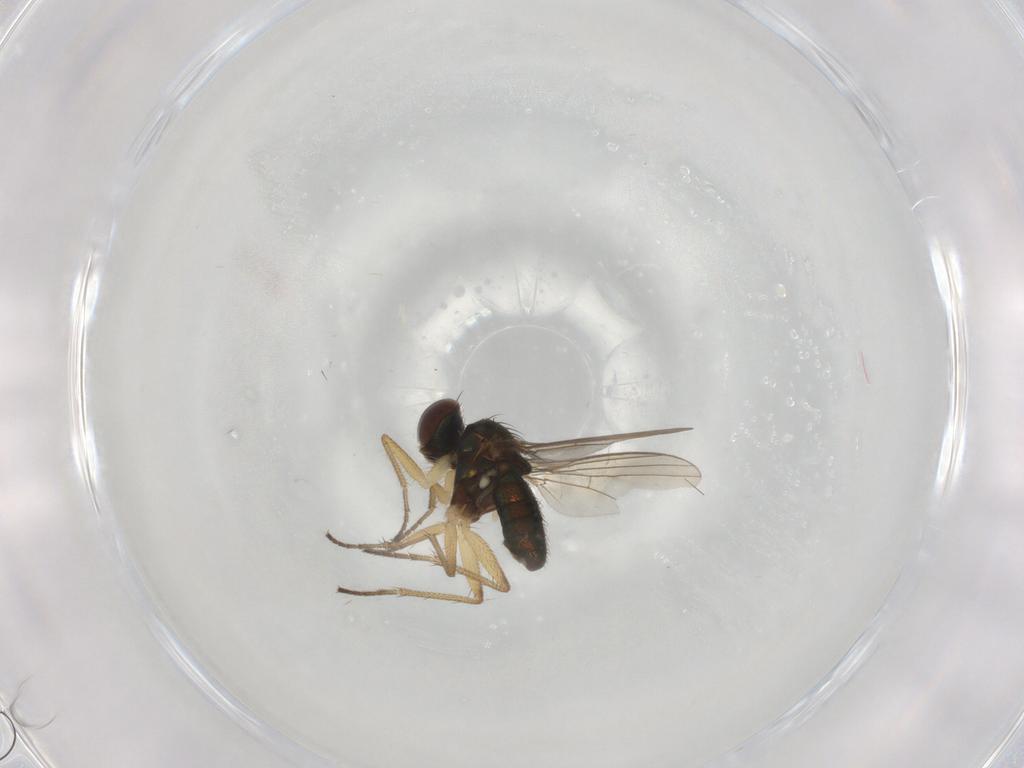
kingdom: Animalia
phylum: Arthropoda
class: Insecta
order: Diptera
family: Dolichopodidae
